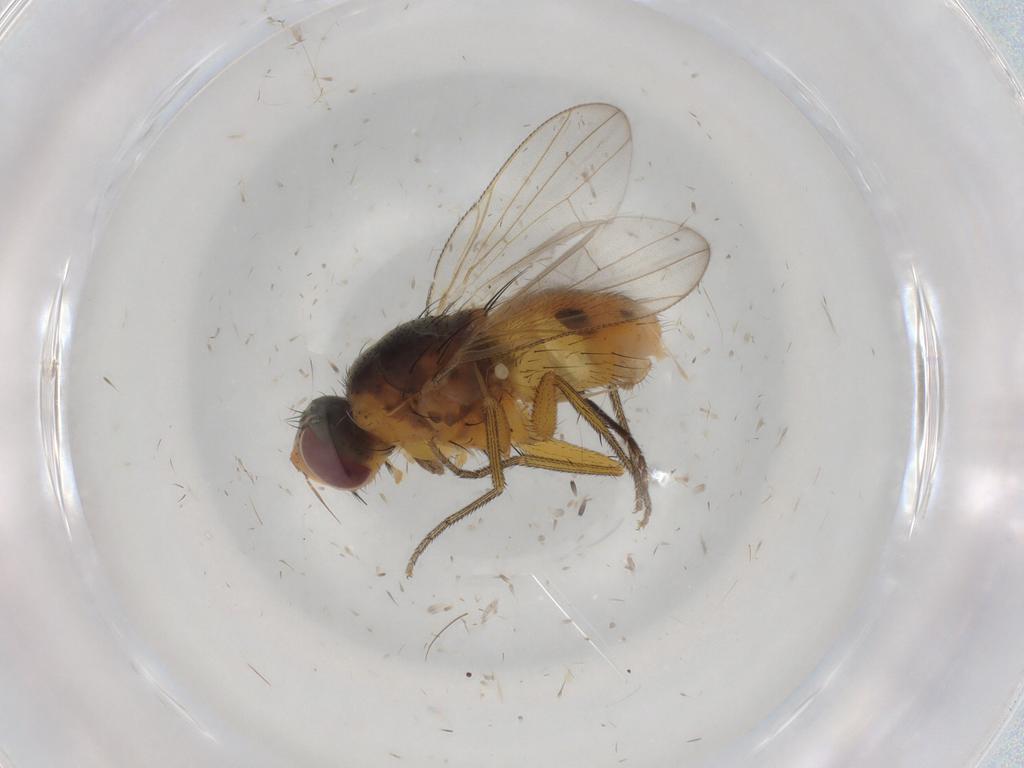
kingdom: Animalia
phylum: Arthropoda
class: Insecta
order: Diptera
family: Muscidae
